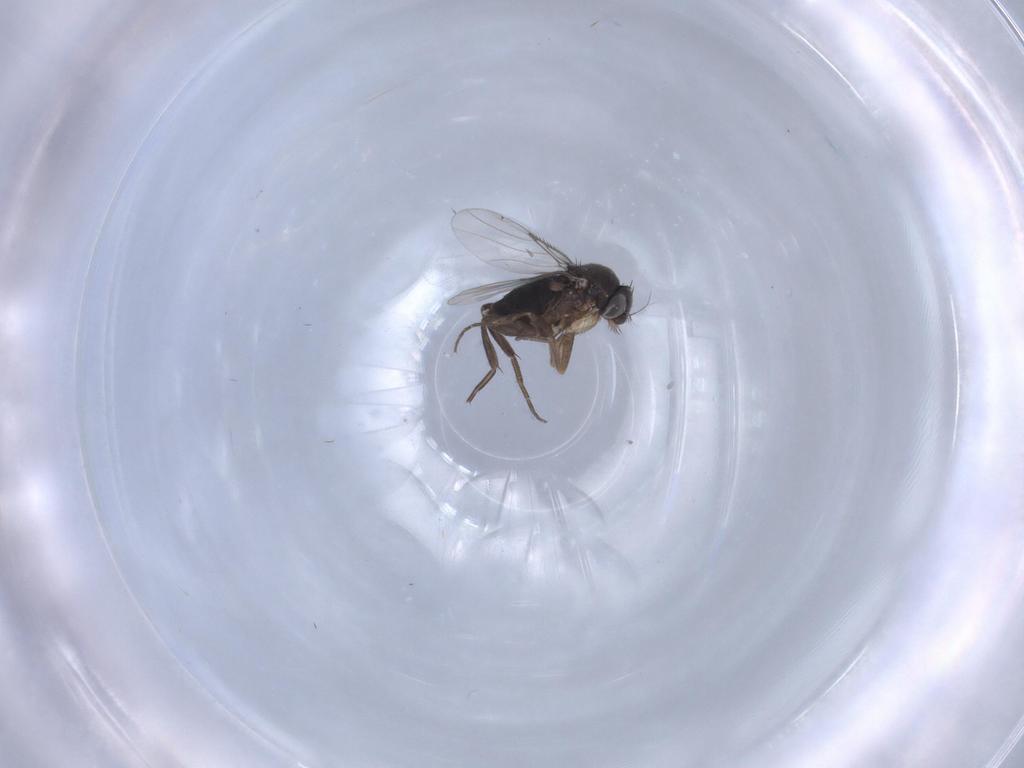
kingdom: Animalia
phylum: Arthropoda
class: Insecta
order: Diptera
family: Phoridae
